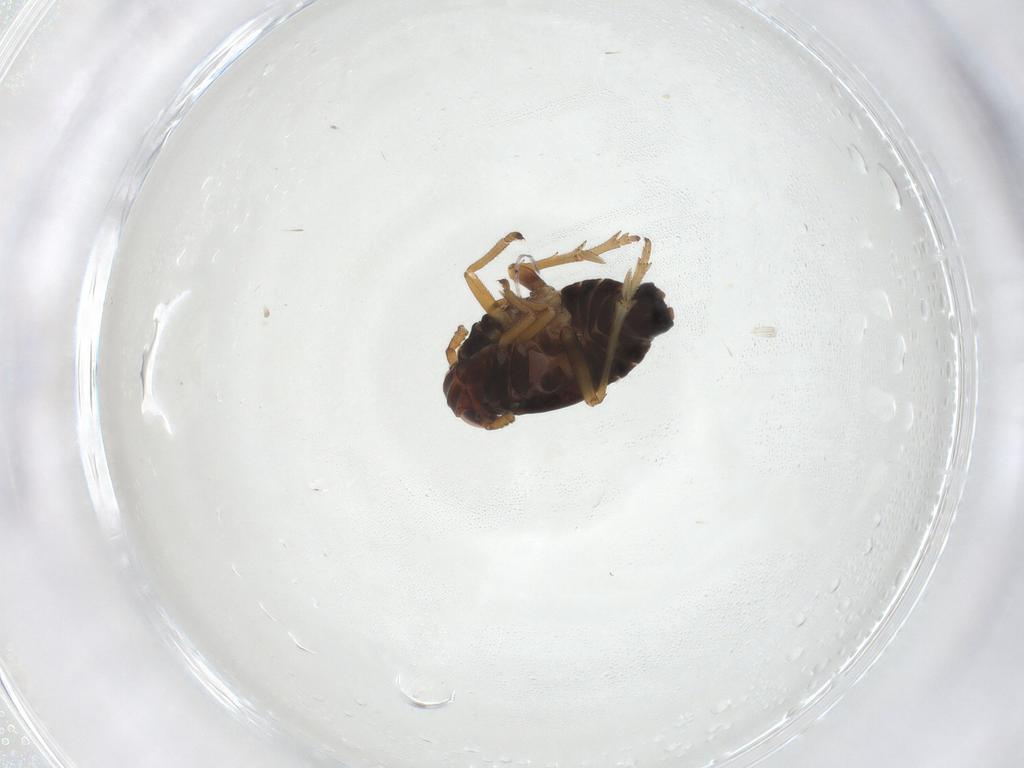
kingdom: Animalia
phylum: Arthropoda
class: Insecta
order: Hemiptera
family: Delphacidae
